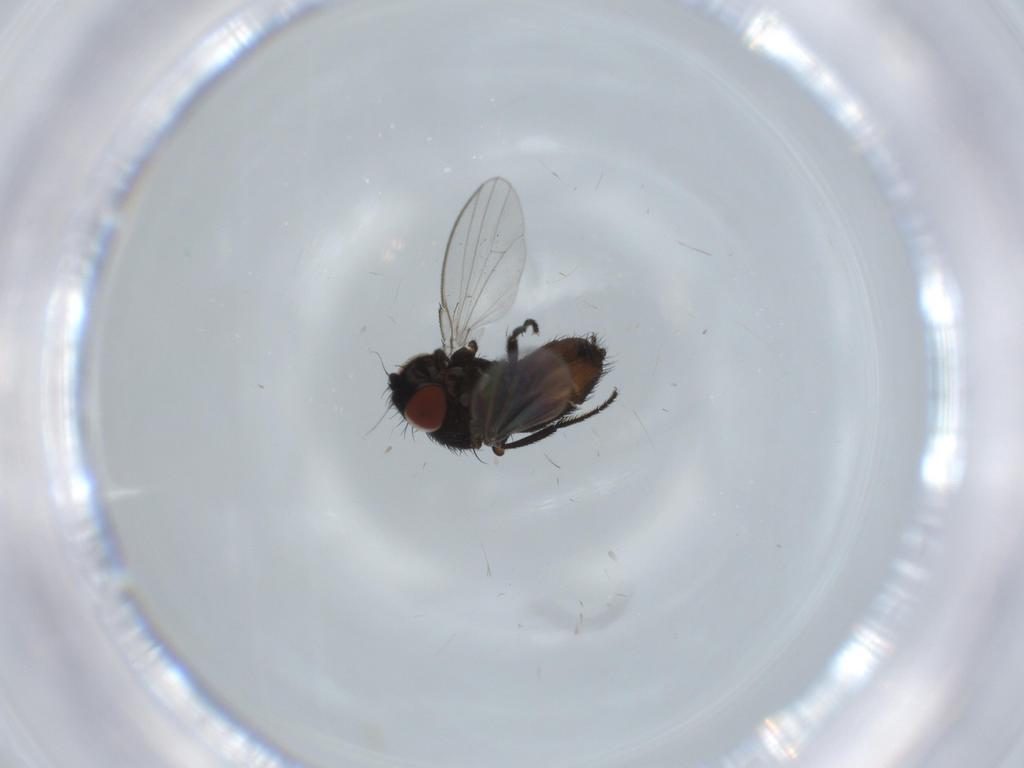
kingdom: Animalia
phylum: Arthropoda
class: Insecta
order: Diptera
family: Milichiidae
